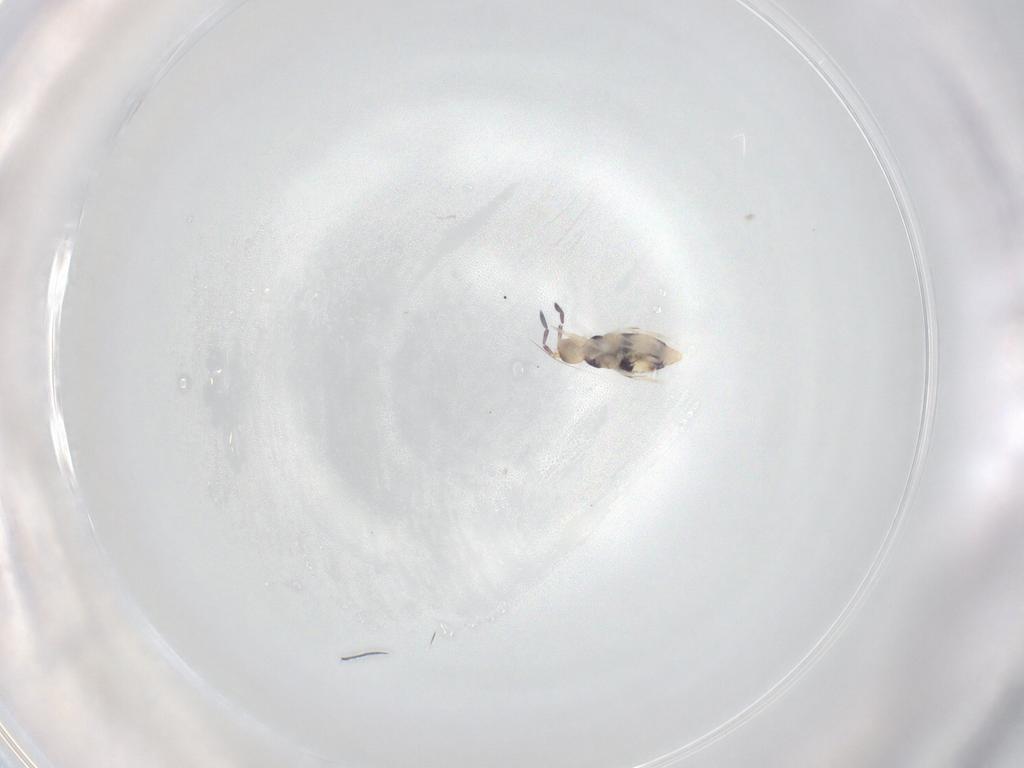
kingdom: Animalia
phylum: Arthropoda
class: Collembola
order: Entomobryomorpha
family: Entomobryidae
